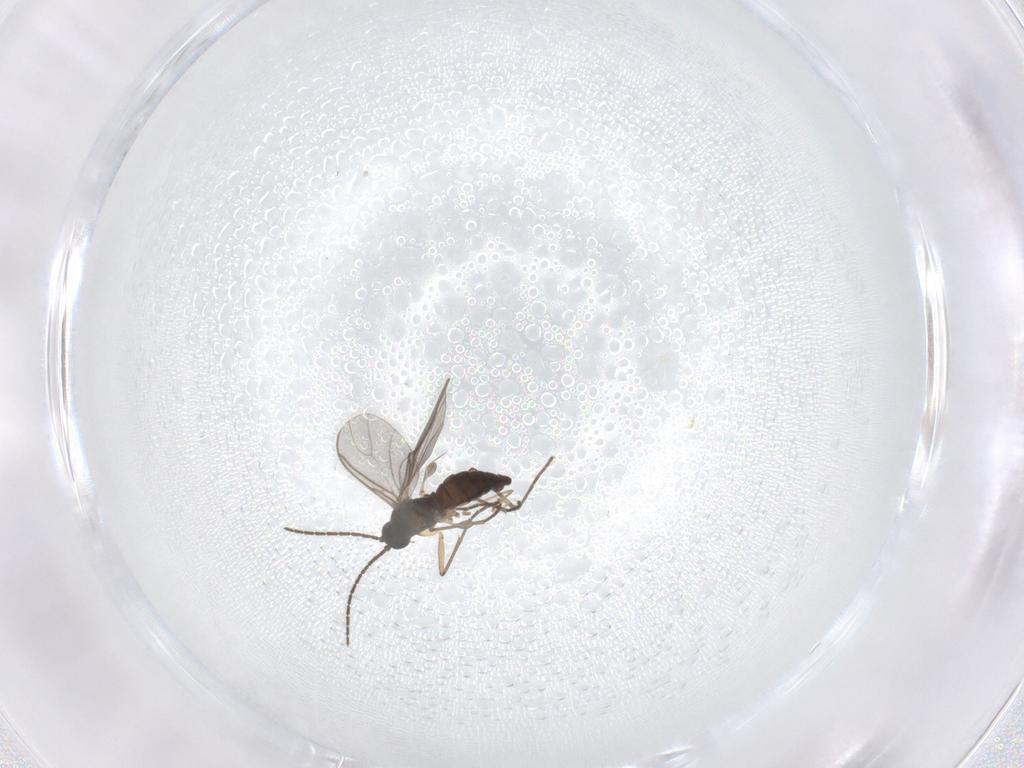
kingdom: Animalia
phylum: Arthropoda
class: Insecta
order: Diptera
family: Sciaridae
